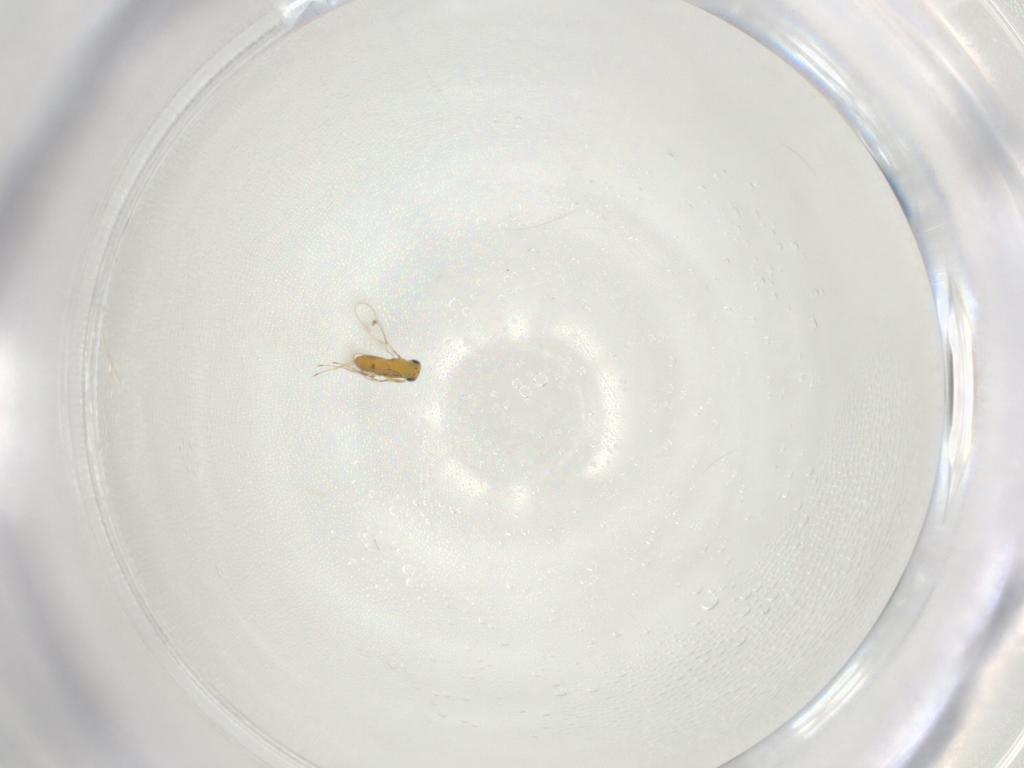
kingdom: Animalia
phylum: Arthropoda
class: Insecta
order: Hymenoptera
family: Trichogrammatidae
